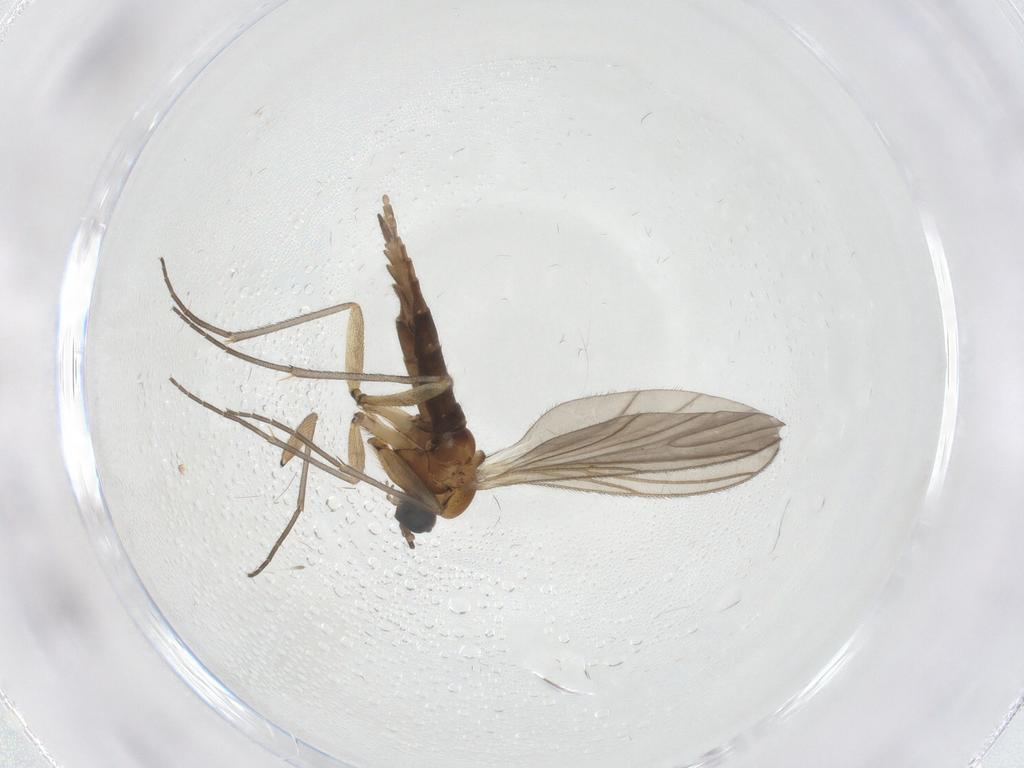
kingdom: Animalia
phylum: Arthropoda
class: Insecta
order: Diptera
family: Sciaridae
